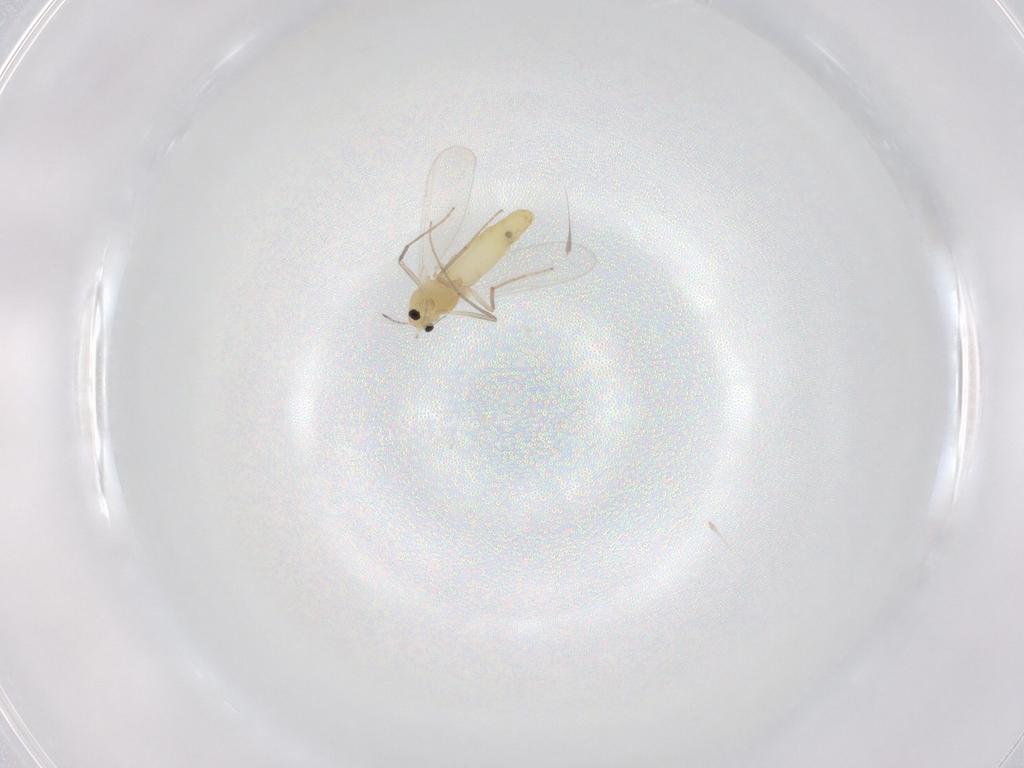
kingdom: Animalia
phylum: Arthropoda
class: Insecta
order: Diptera
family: Chironomidae
